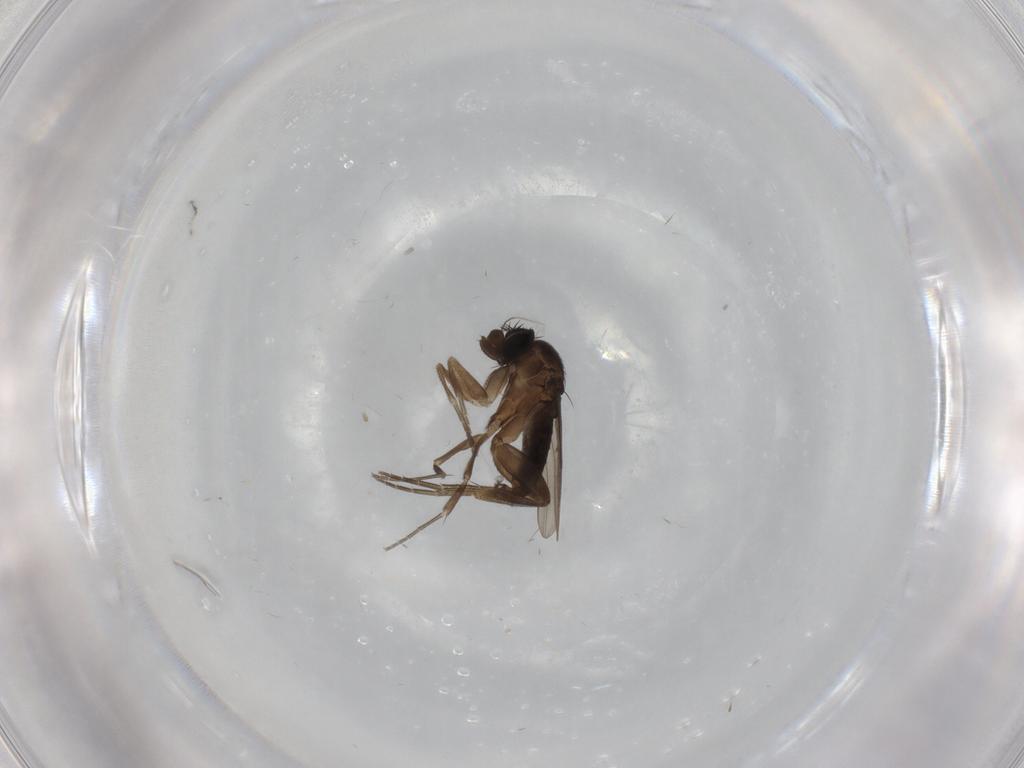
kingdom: Animalia
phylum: Arthropoda
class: Insecta
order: Diptera
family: Phoridae
